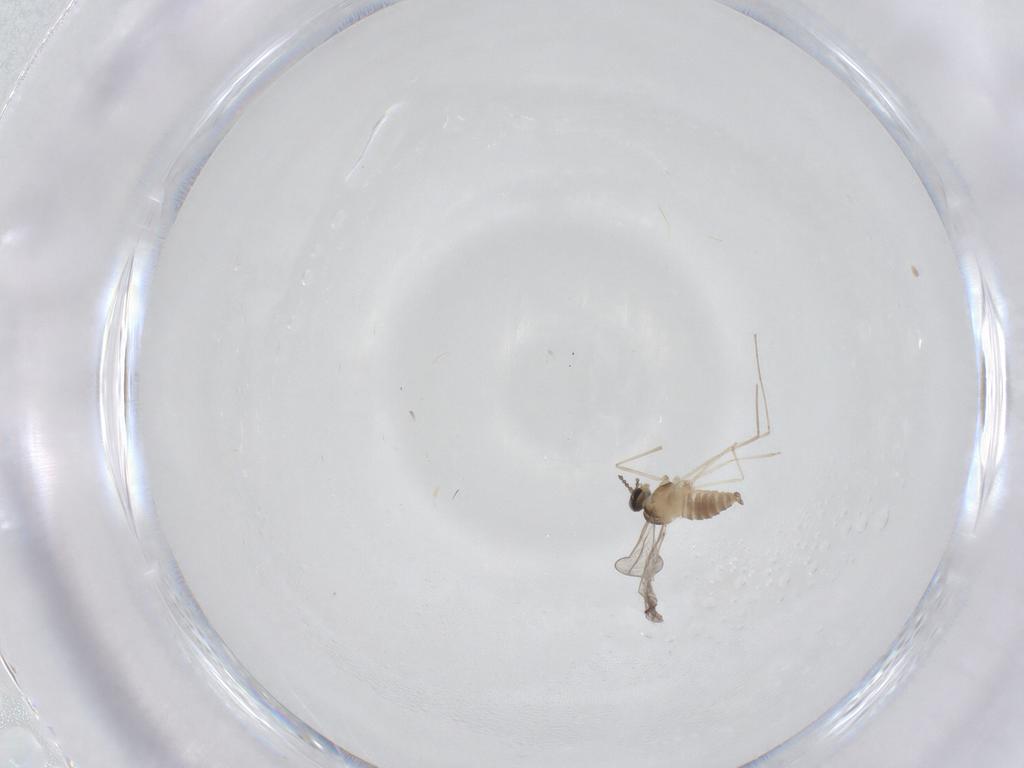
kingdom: Animalia
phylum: Arthropoda
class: Insecta
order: Diptera
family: Cecidomyiidae
